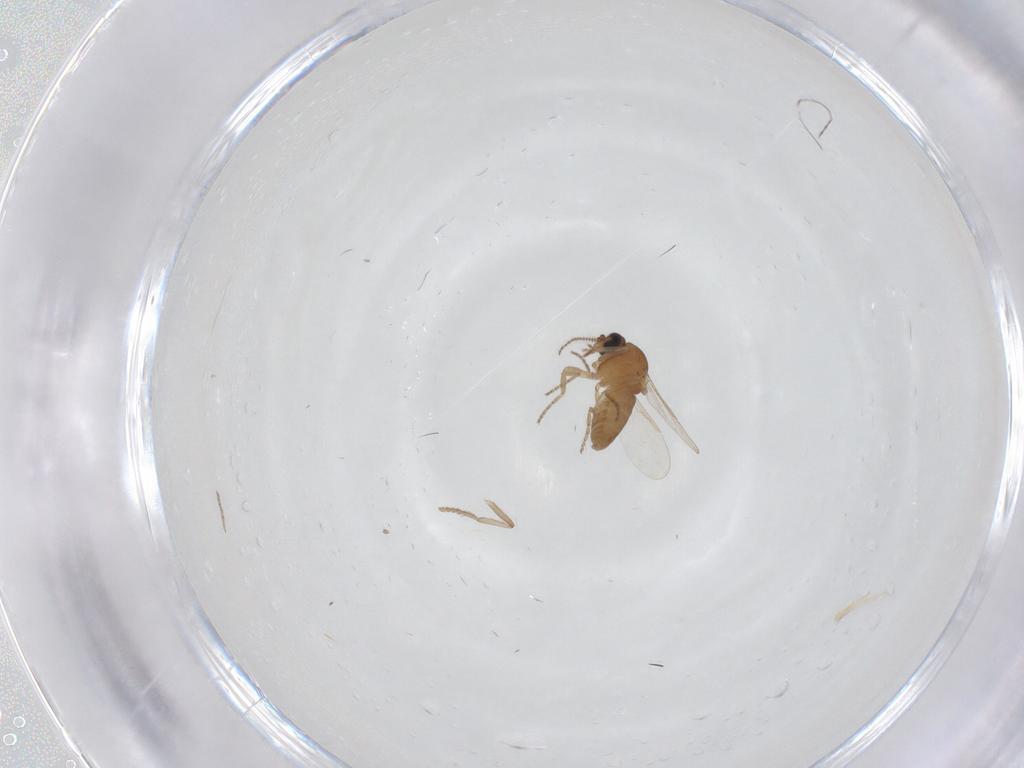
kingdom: Animalia
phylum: Arthropoda
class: Insecta
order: Diptera
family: Ceratopogonidae
